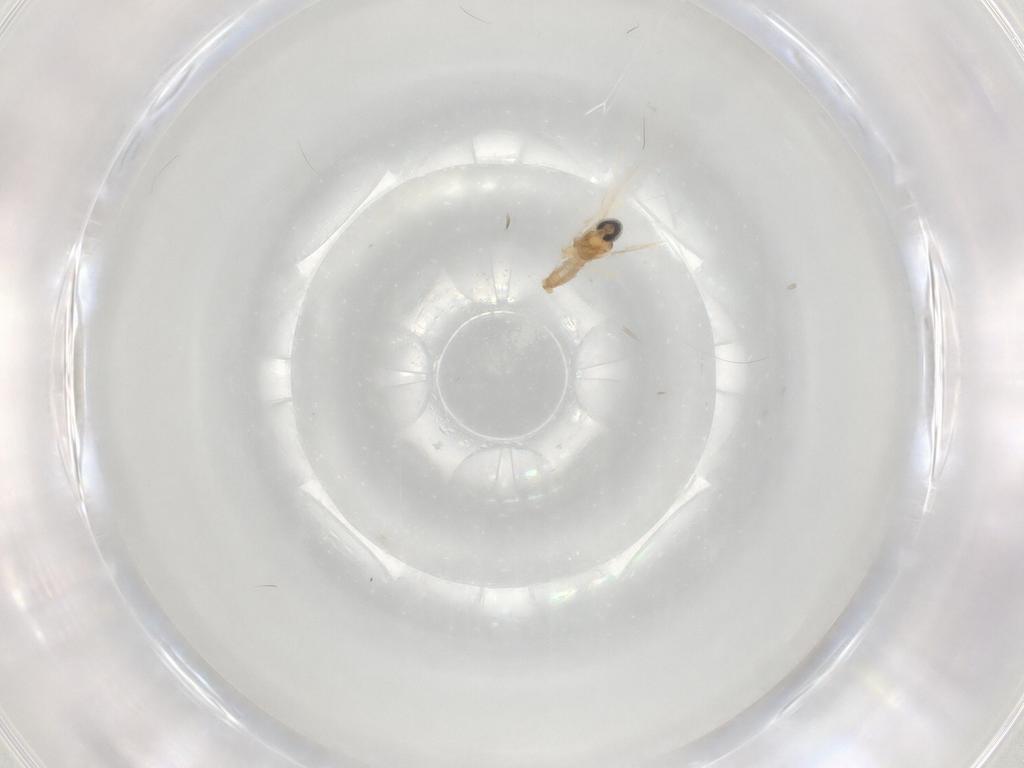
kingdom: Animalia
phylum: Arthropoda
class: Insecta
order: Diptera
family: Cecidomyiidae
